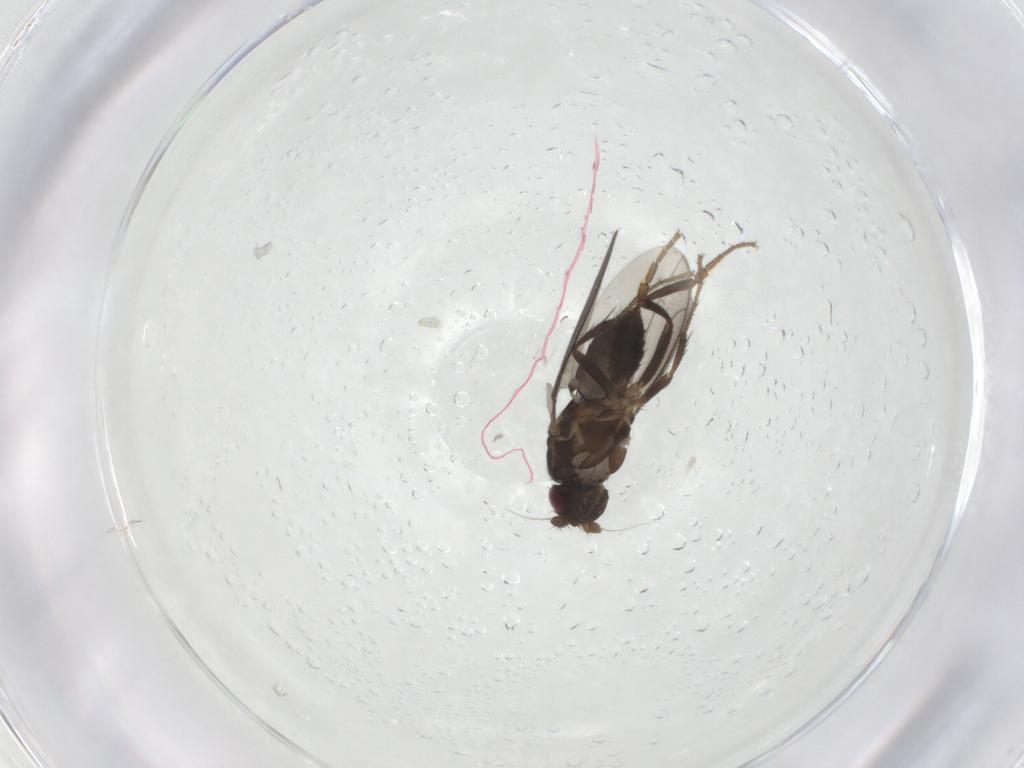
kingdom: Animalia
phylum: Arthropoda
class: Insecta
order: Diptera
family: Sphaeroceridae
